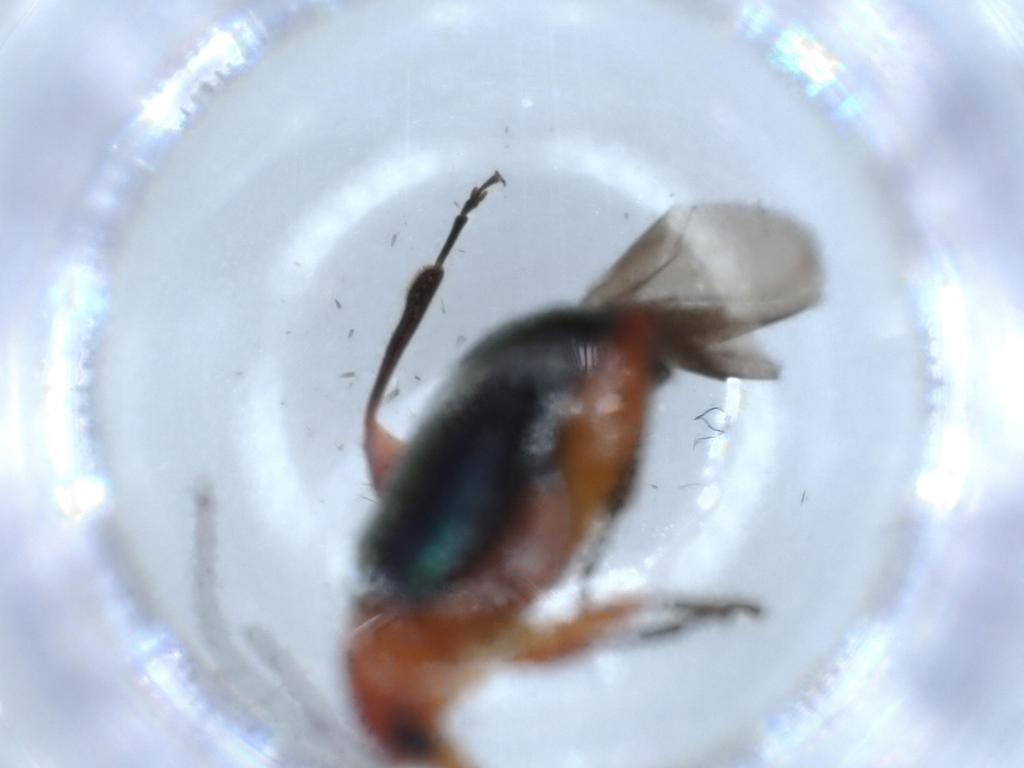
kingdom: Animalia
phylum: Arthropoda
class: Insecta
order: Coleoptera
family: Chrysomelidae
